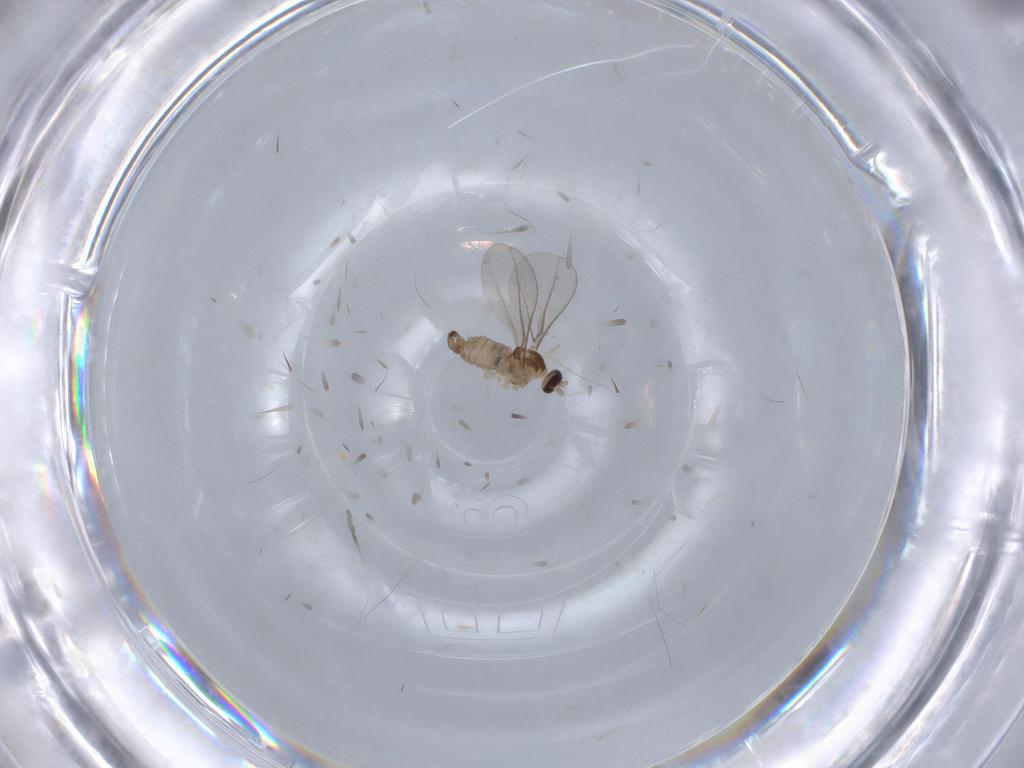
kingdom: Animalia
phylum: Arthropoda
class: Insecta
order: Diptera
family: Cecidomyiidae
